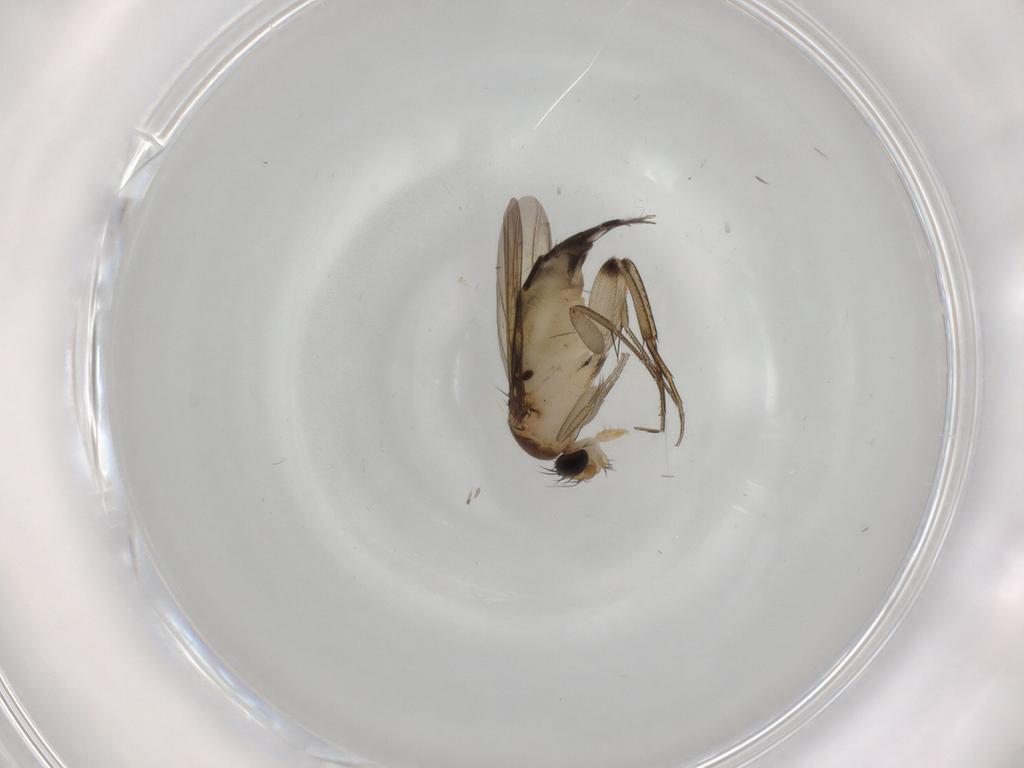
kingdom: Animalia
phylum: Arthropoda
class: Insecta
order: Diptera
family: Phoridae
